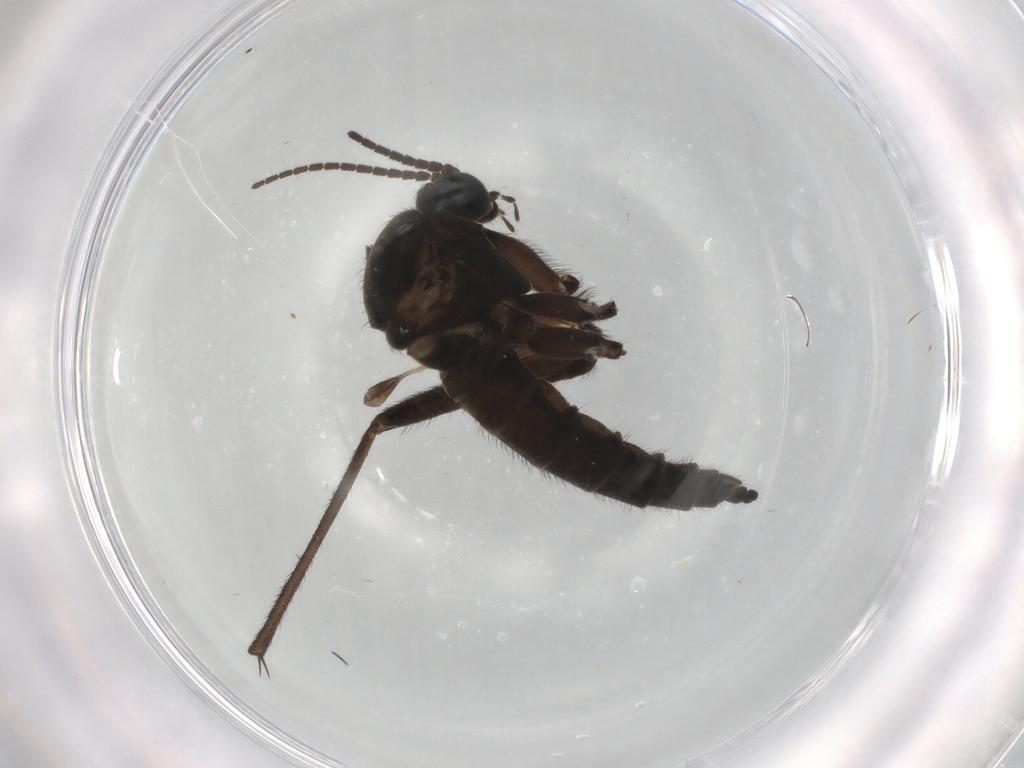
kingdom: Animalia
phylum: Arthropoda
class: Insecta
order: Diptera
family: Sciaridae
